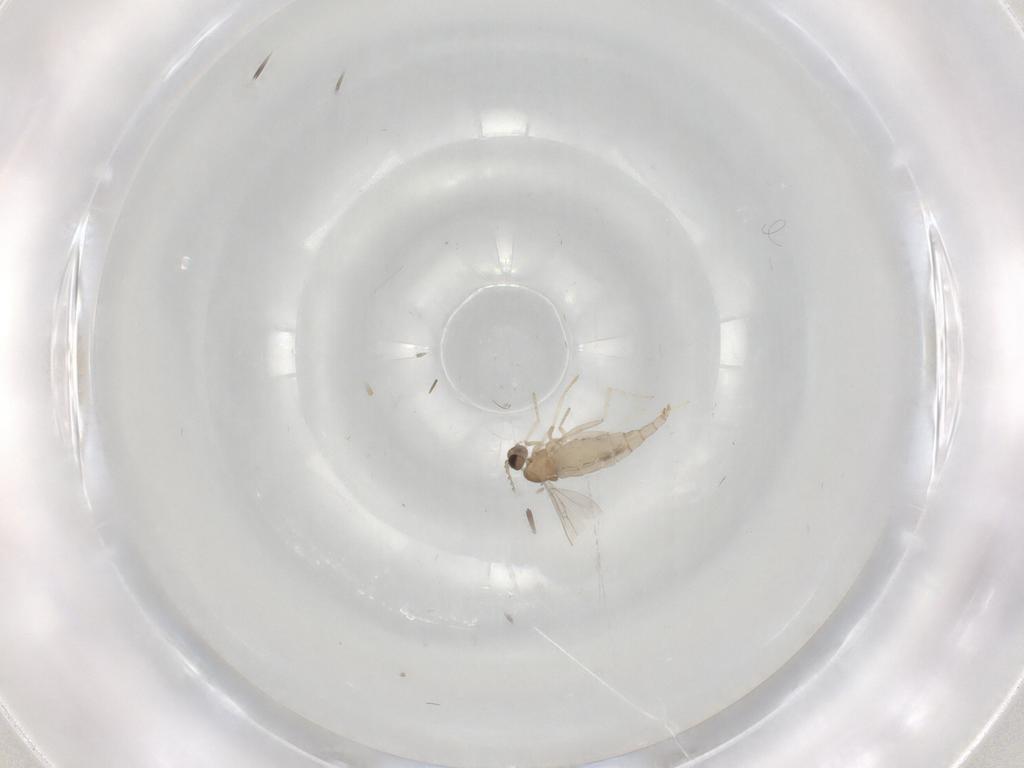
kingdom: Animalia
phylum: Arthropoda
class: Insecta
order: Diptera
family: Cecidomyiidae
